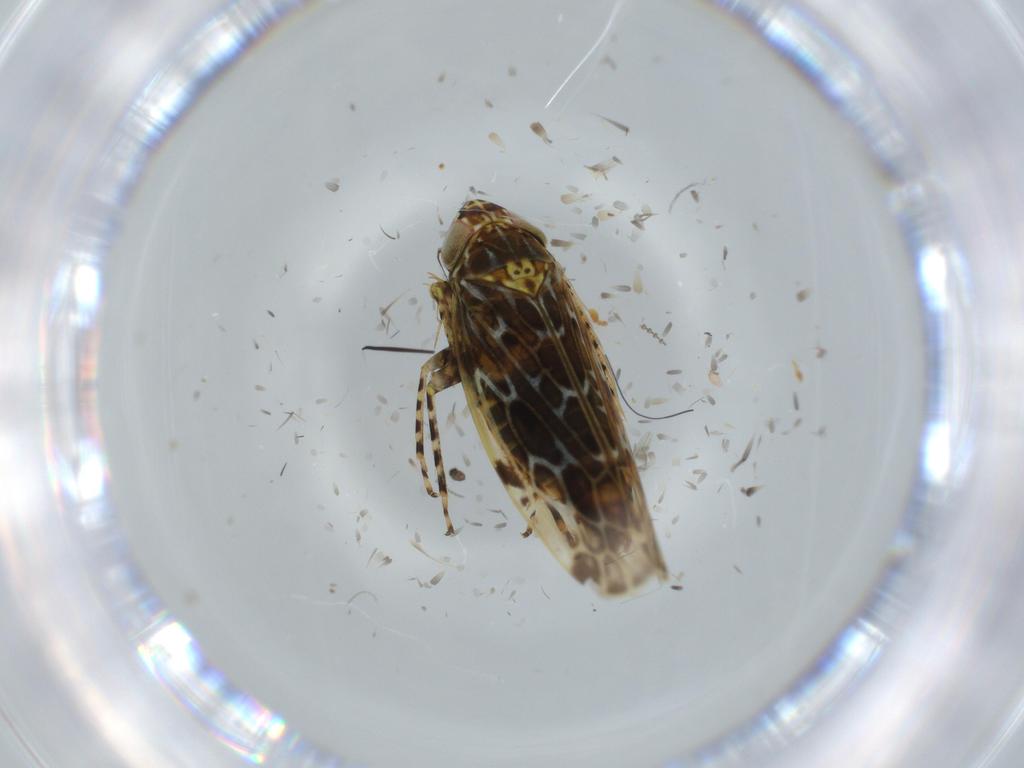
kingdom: Animalia
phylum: Arthropoda
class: Insecta
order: Hemiptera
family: Cicadellidae
